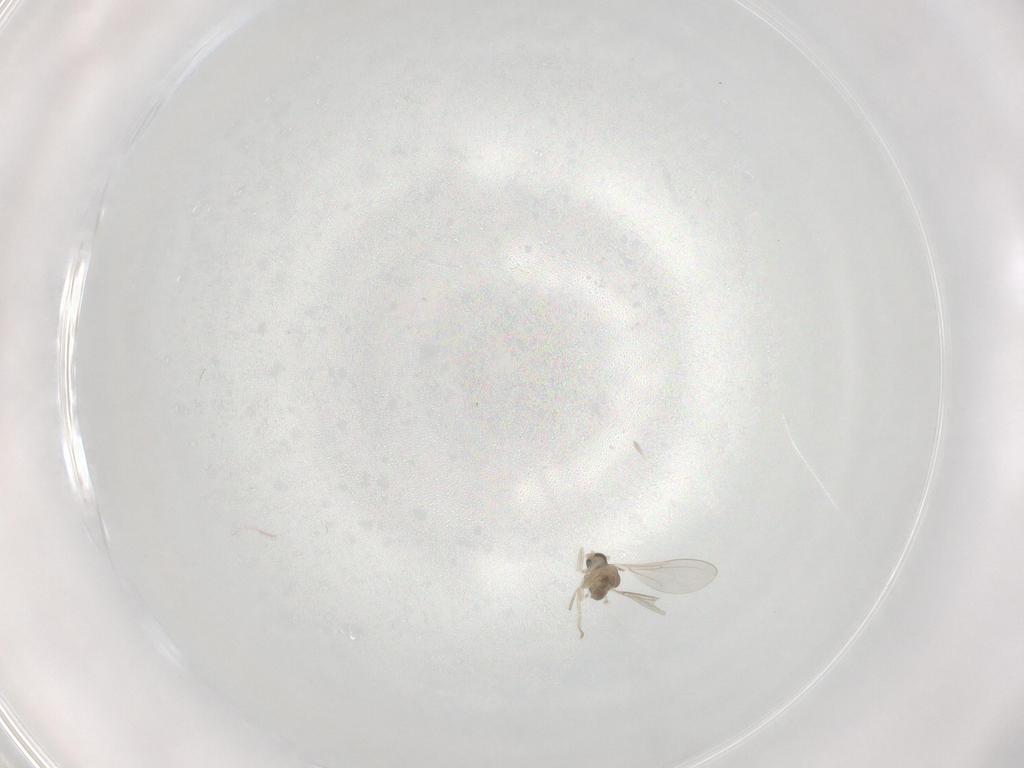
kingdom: Animalia
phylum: Arthropoda
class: Insecta
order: Diptera
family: Cecidomyiidae
